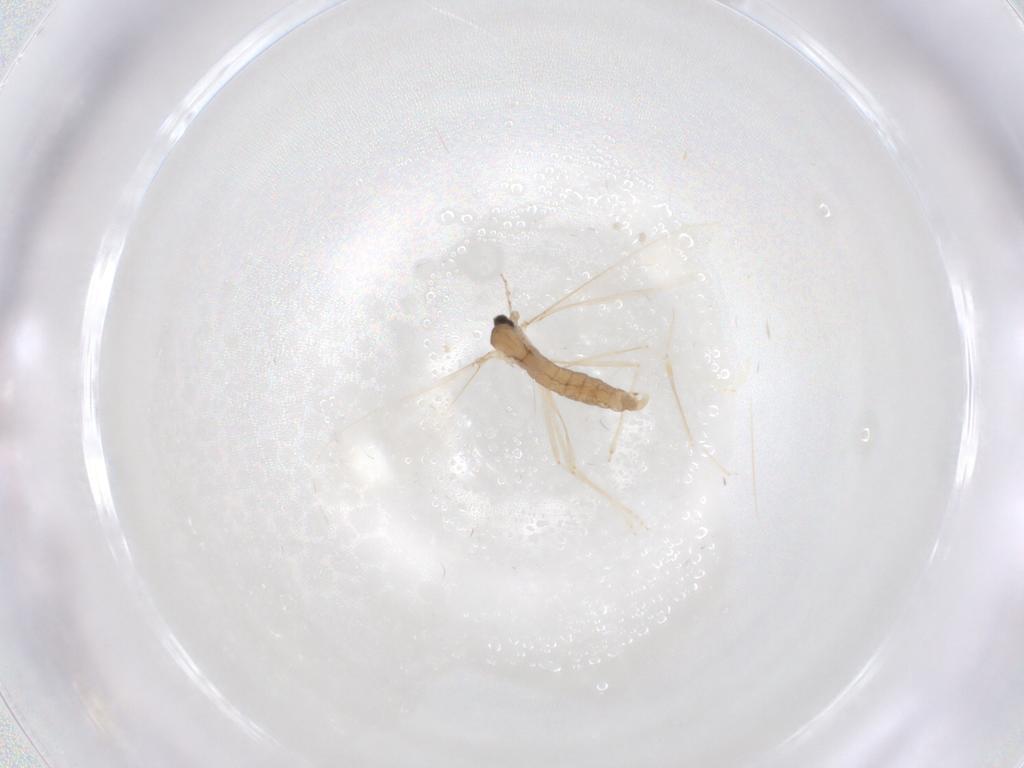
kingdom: Animalia
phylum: Arthropoda
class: Insecta
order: Diptera
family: Cecidomyiidae
